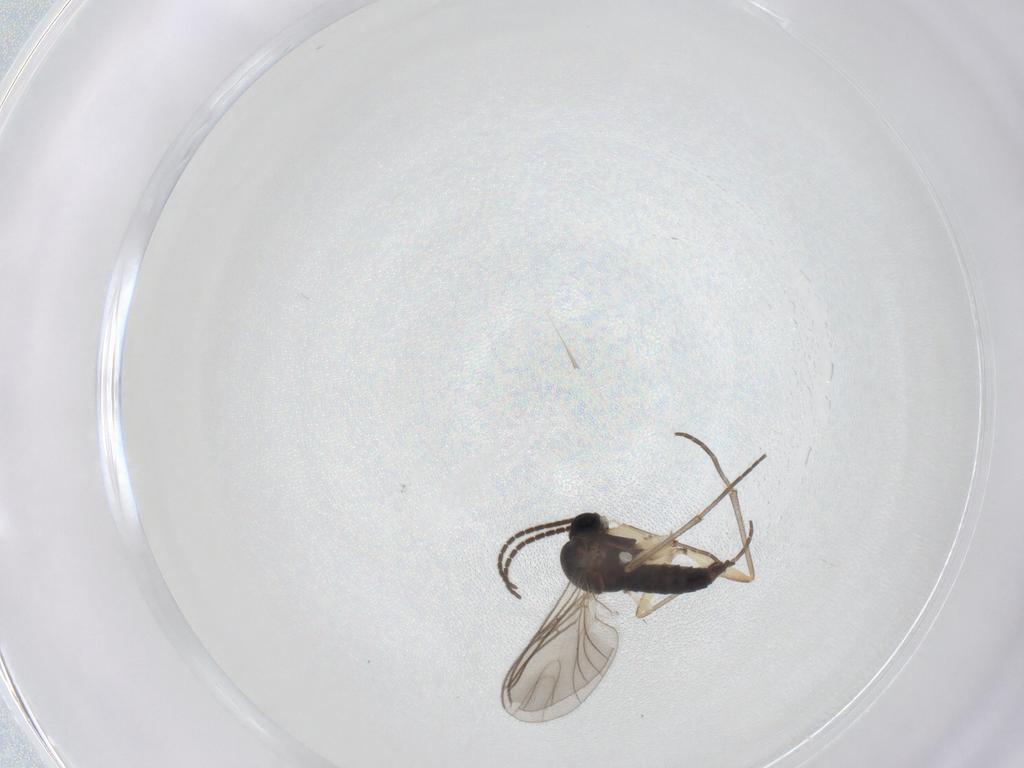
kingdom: Animalia
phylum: Arthropoda
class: Insecta
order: Diptera
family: Sciaridae
